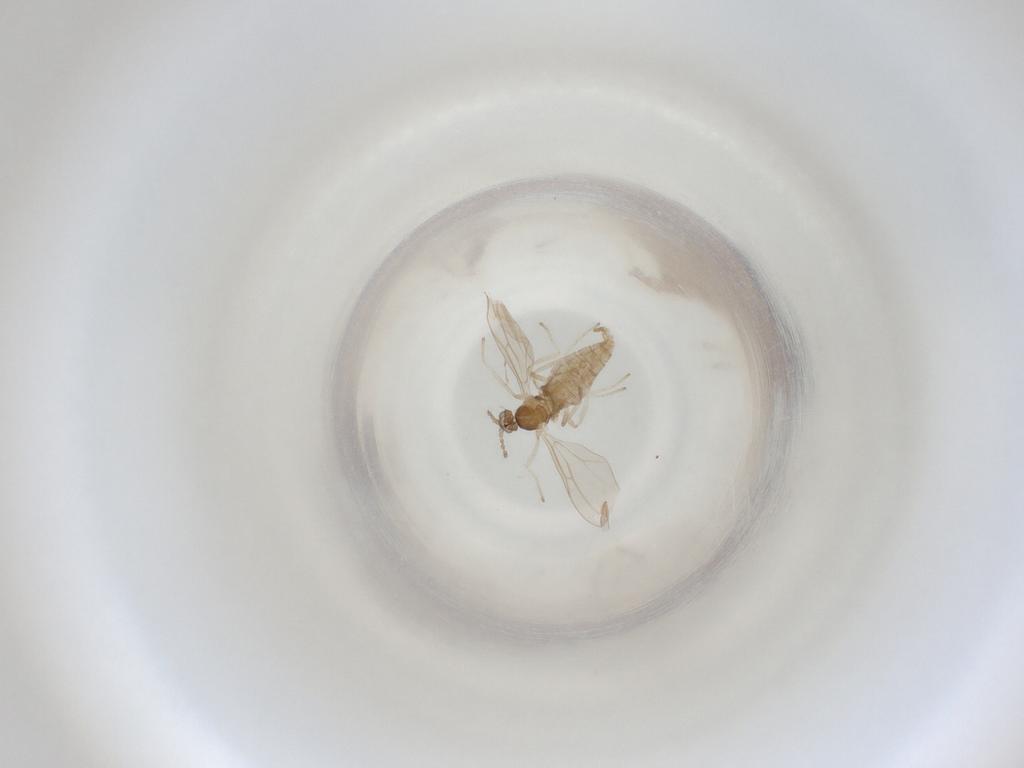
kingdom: Animalia
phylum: Arthropoda
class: Insecta
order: Diptera
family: Cecidomyiidae
